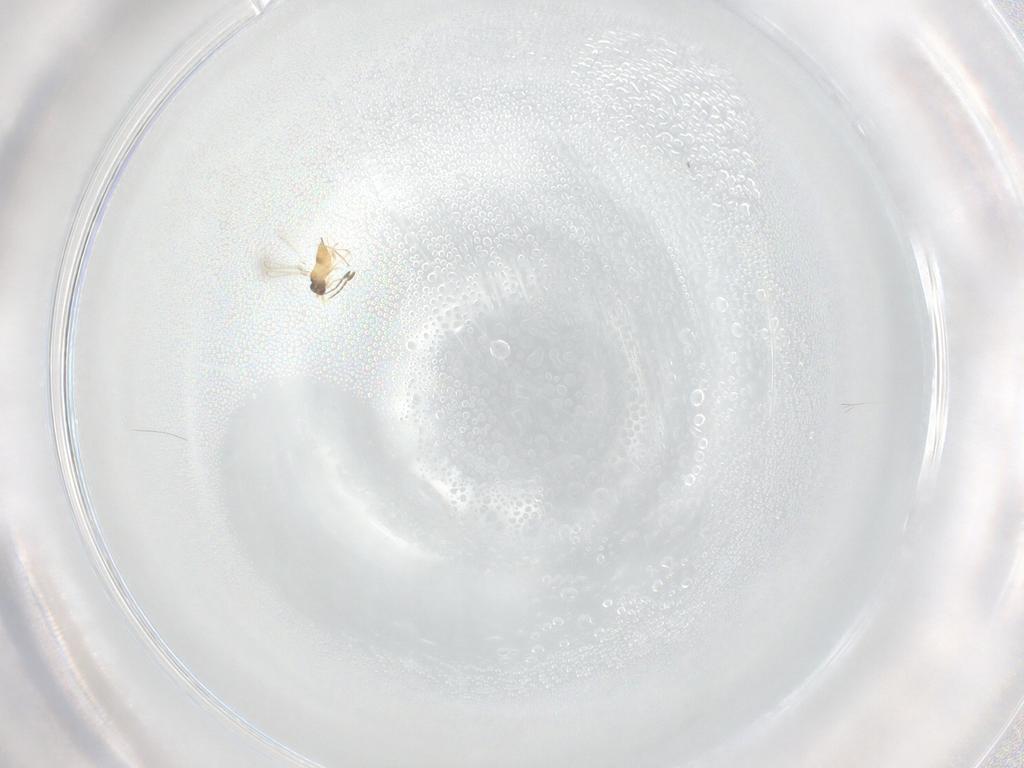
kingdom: Animalia
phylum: Arthropoda
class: Insecta
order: Hymenoptera
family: Mymaridae
